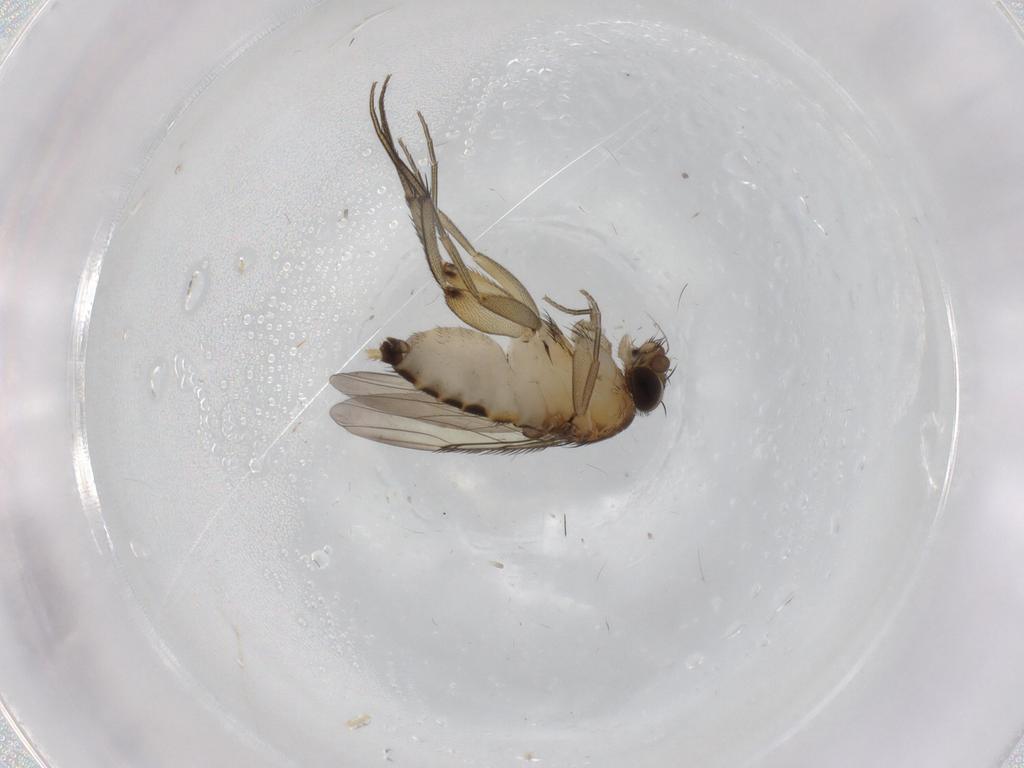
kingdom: Animalia
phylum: Arthropoda
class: Insecta
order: Diptera
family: Phoridae
